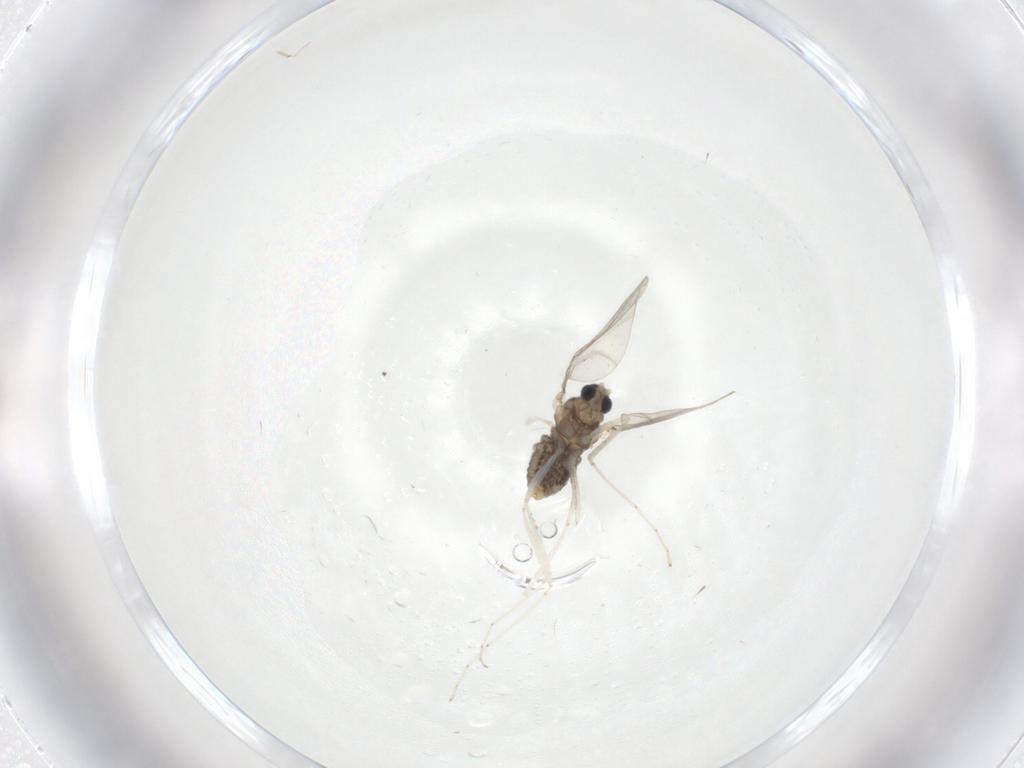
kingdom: Animalia
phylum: Arthropoda
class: Insecta
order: Diptera
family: Cecidomyiidae
